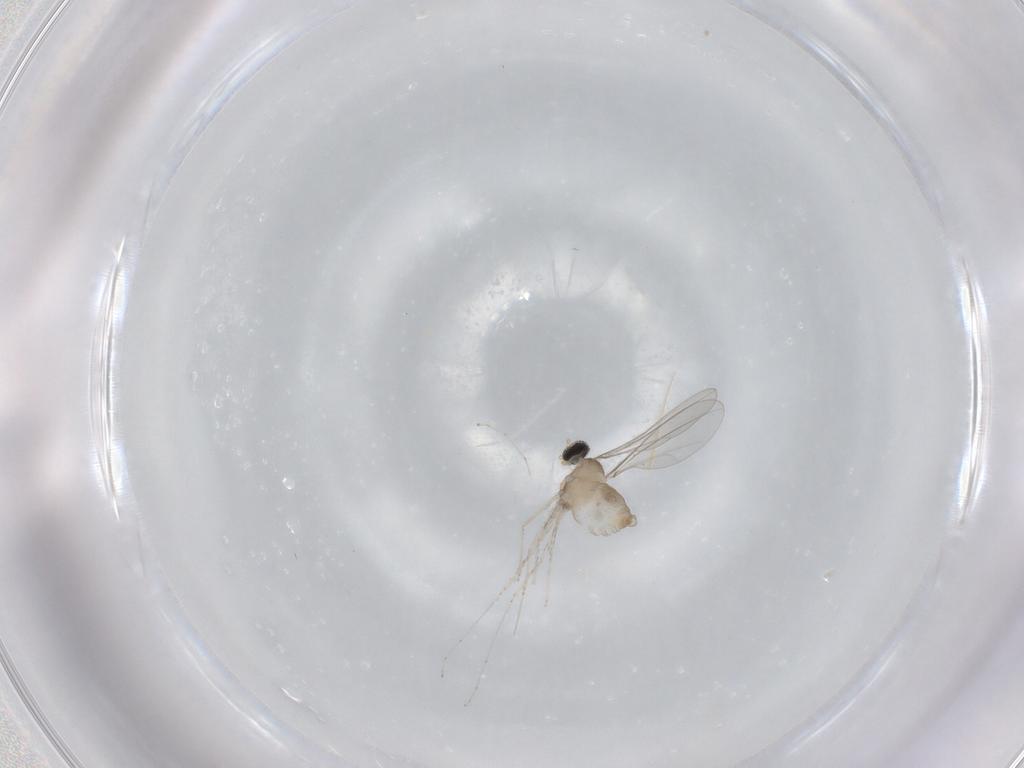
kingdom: Animalia
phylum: Arthropoda
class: Insecta
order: Diptera
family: Cecidomyiidae
